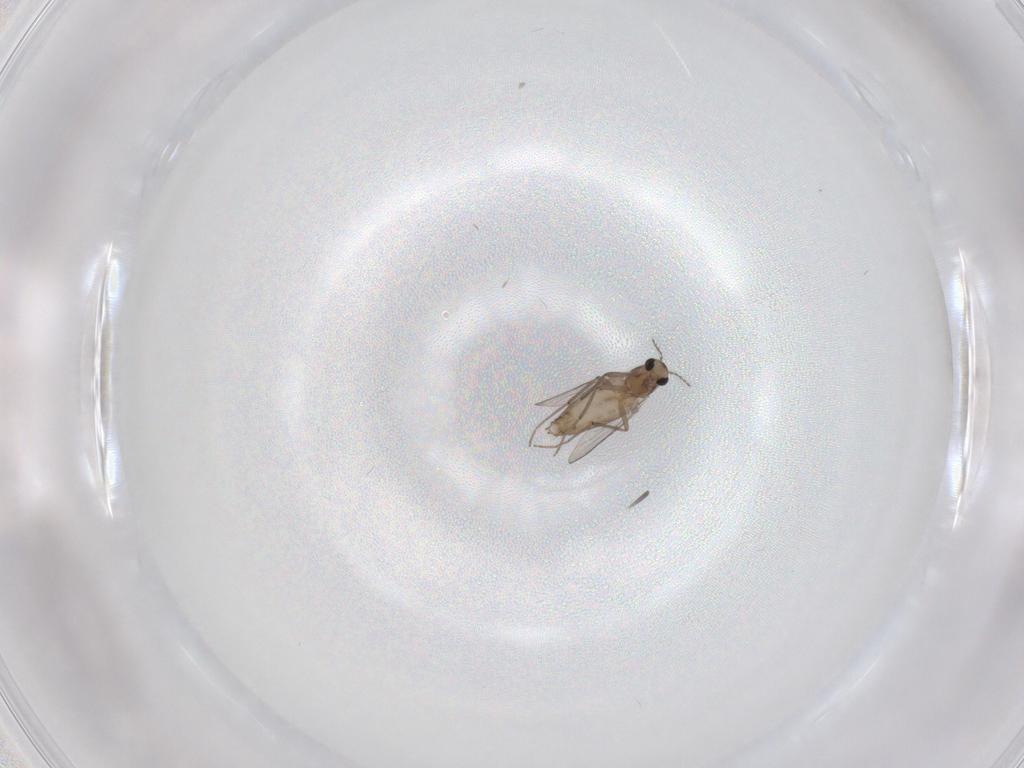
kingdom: Animalia
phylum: Arthropoda
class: Insecta
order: Diptera
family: Chironomidae
